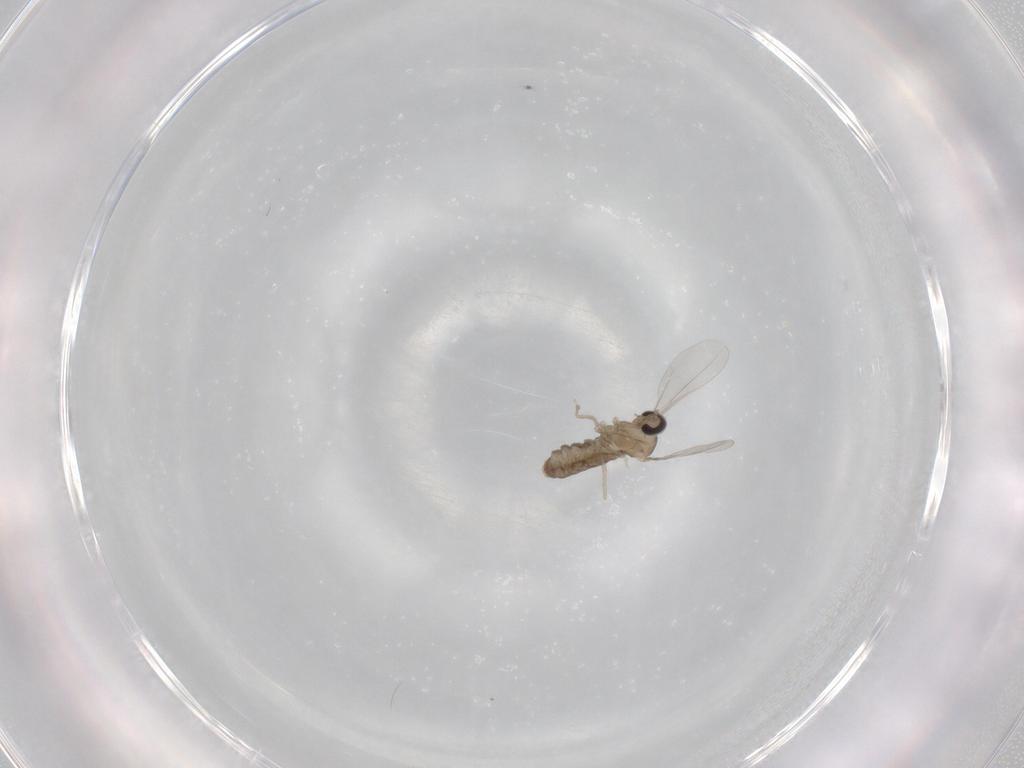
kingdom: Animalia
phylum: Arthropoda
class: Insecta
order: Diptera
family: Cecidomyiidae
